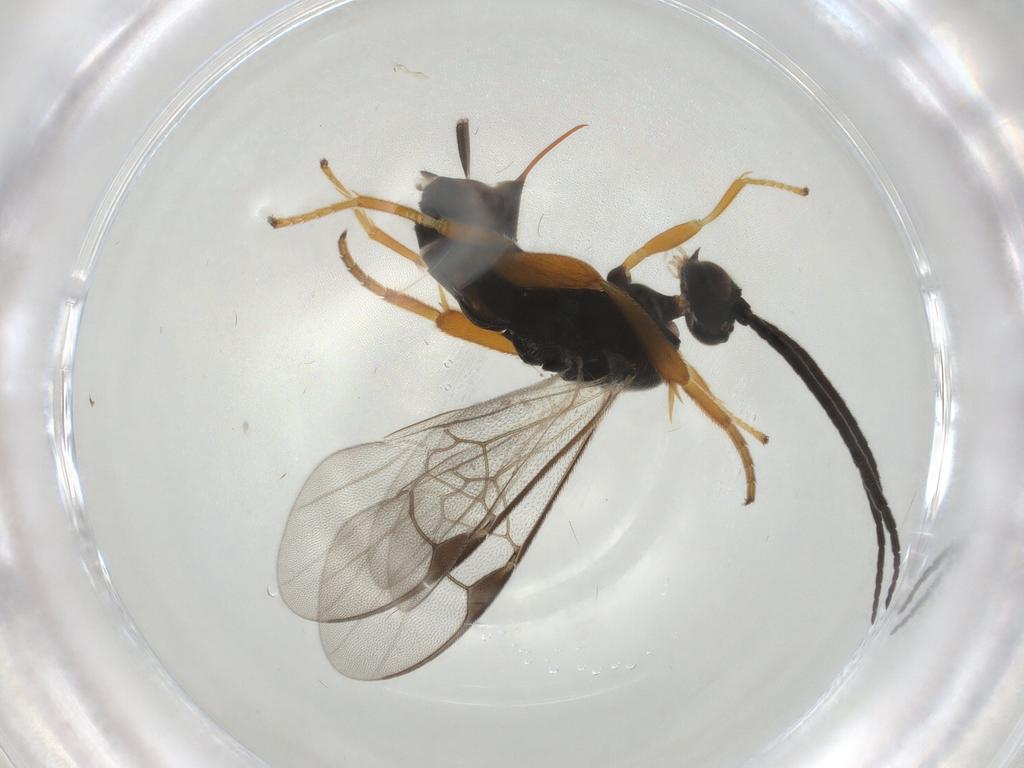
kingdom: Animalia
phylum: Arthropoda
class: Insecta
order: Hymenoptera
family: Braconidae
